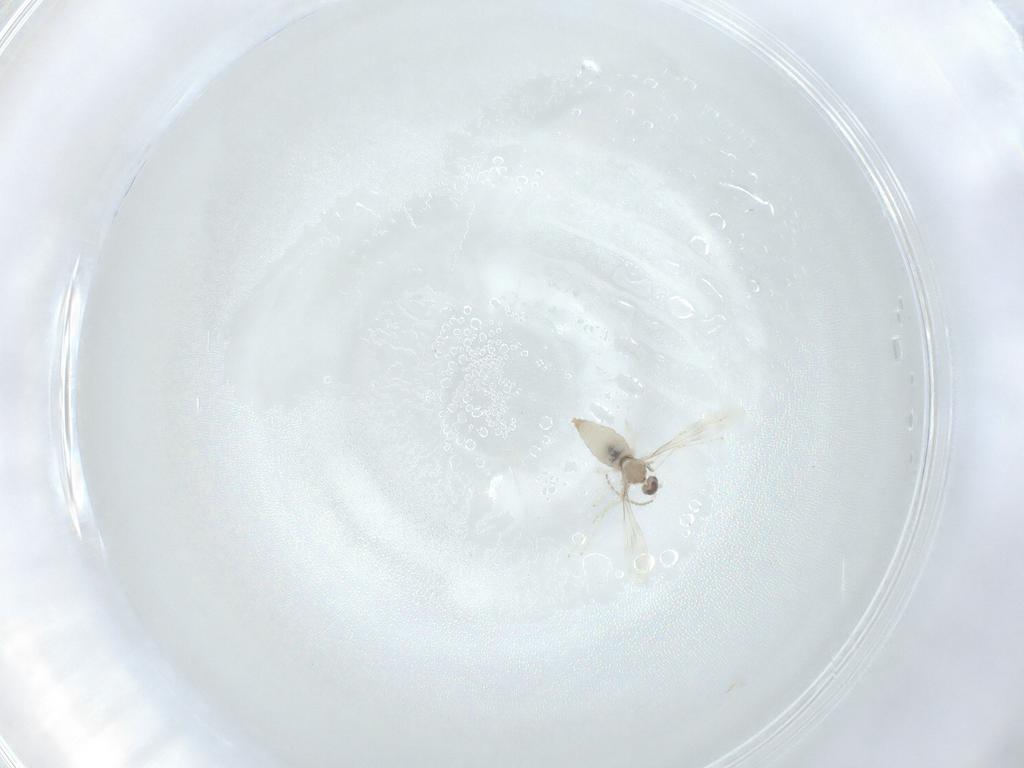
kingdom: Animalia
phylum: Arthropoda
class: Insecta
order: Diptera
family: Cecidomyiidae
